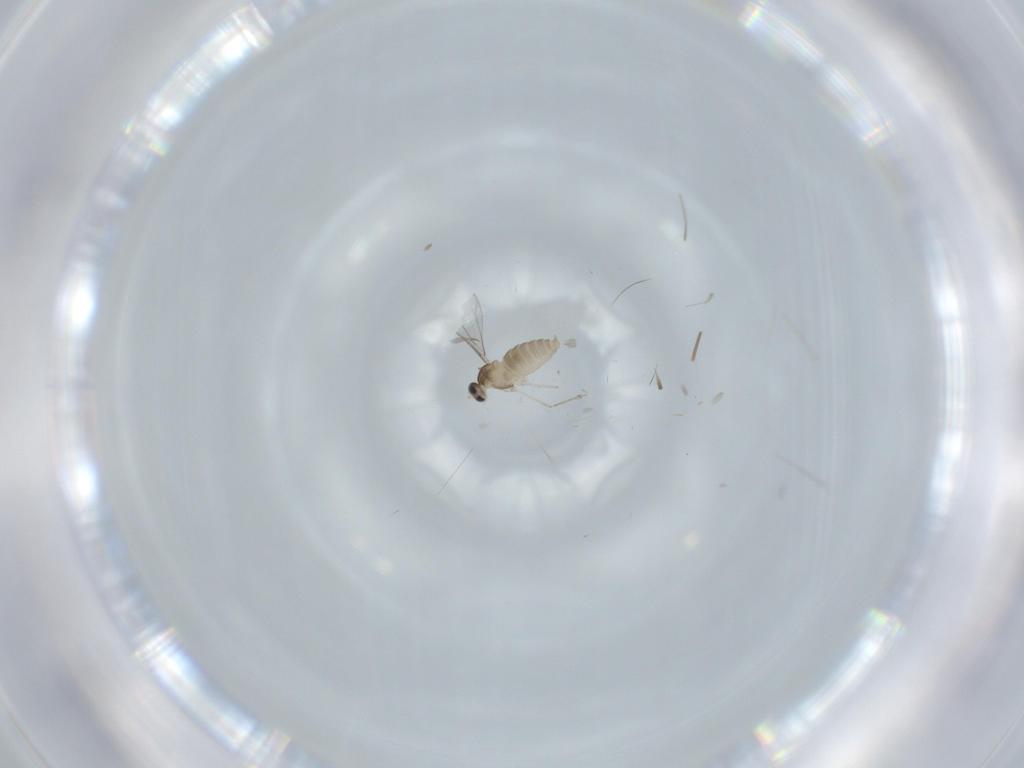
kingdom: Animalia
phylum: Arthropoda
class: Insecta
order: Diptera
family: Cecidomyiidae
